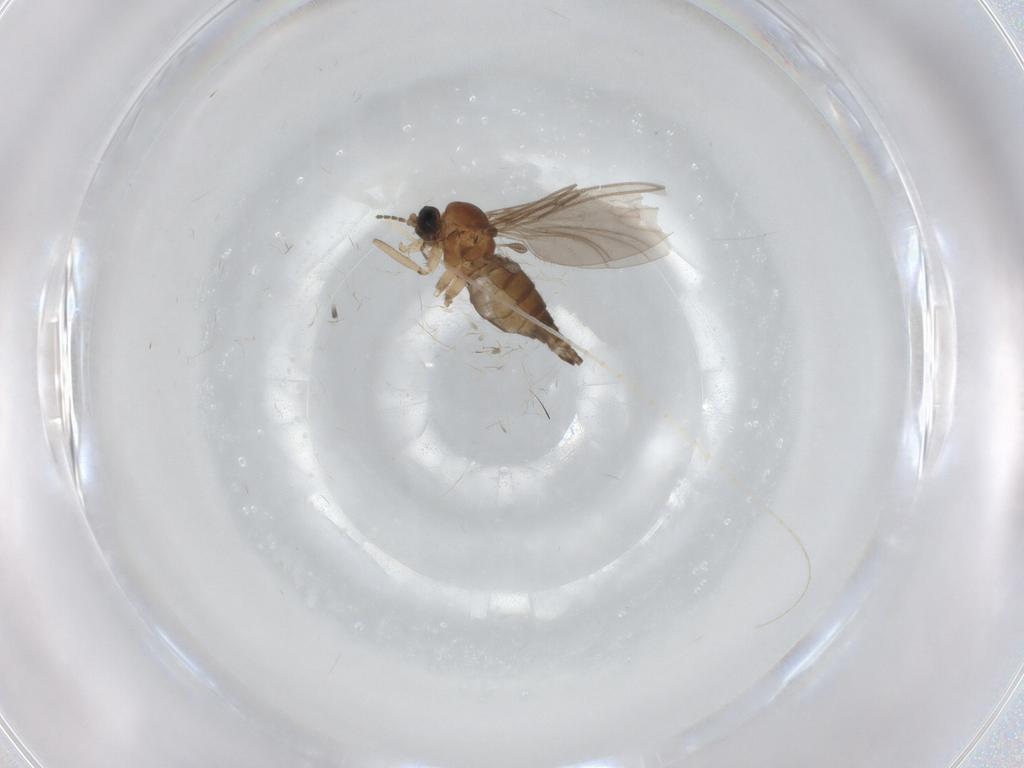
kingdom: Animalia
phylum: Arthropoda
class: Insecta
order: Diptera
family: Sciaridae
